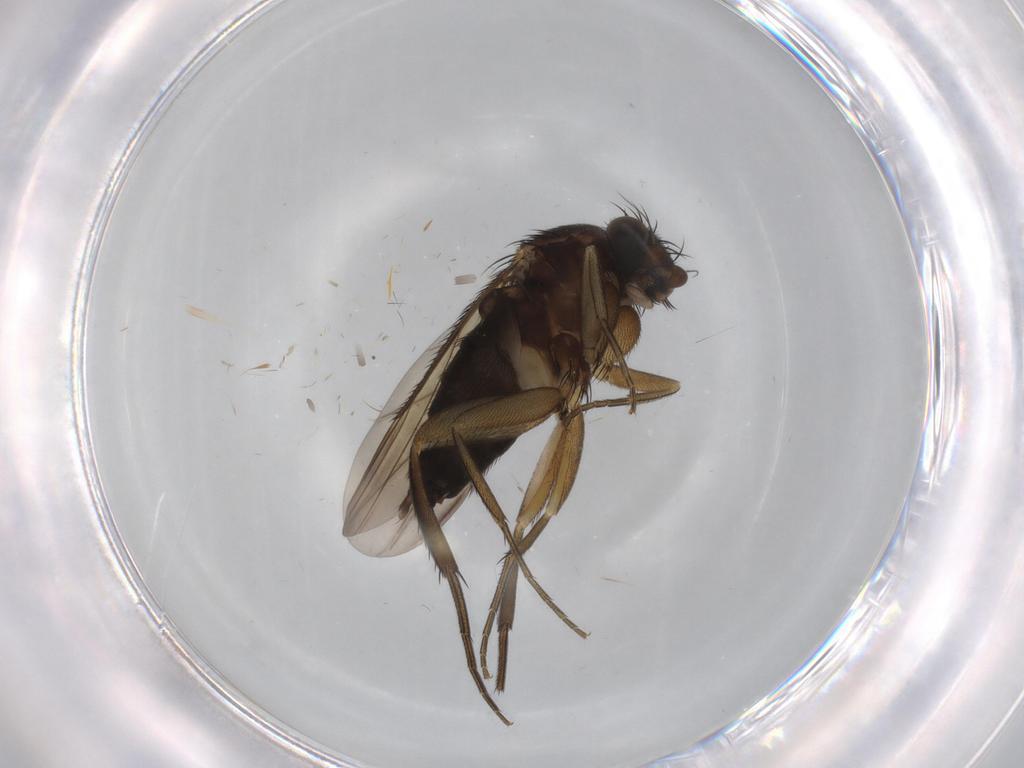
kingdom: Animalia
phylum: Arthropoda
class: Insecta
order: Diptera
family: Phoridae
